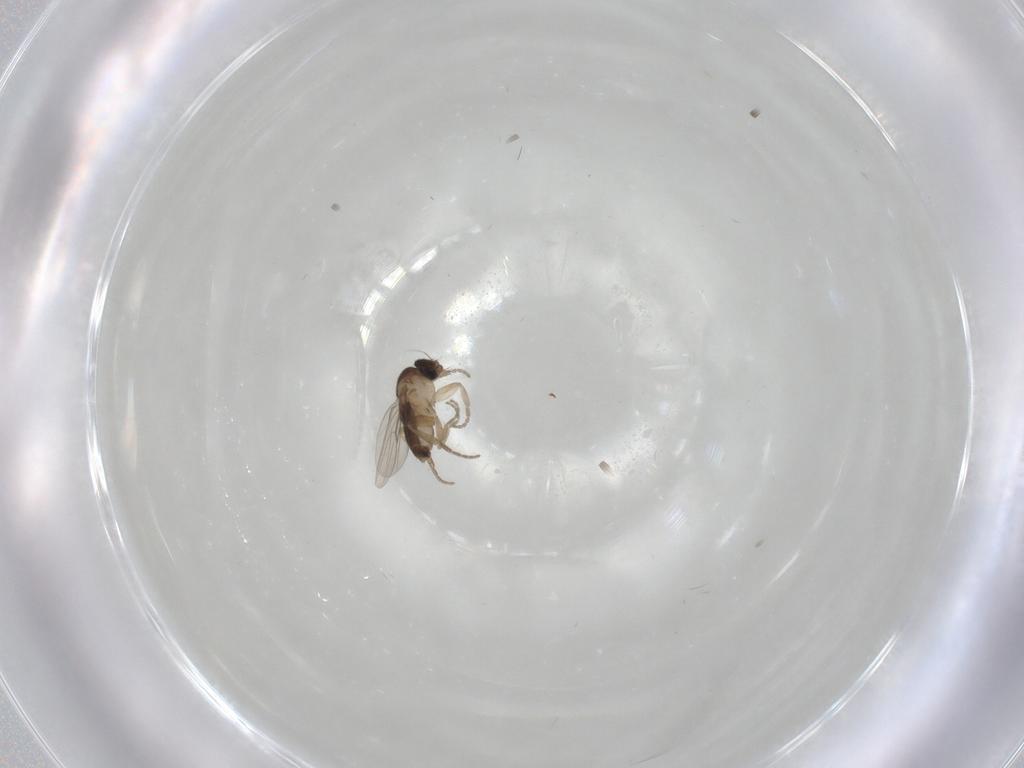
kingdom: Animalia
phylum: Arthropoda
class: Insecta
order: Diptera
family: Phoridae
